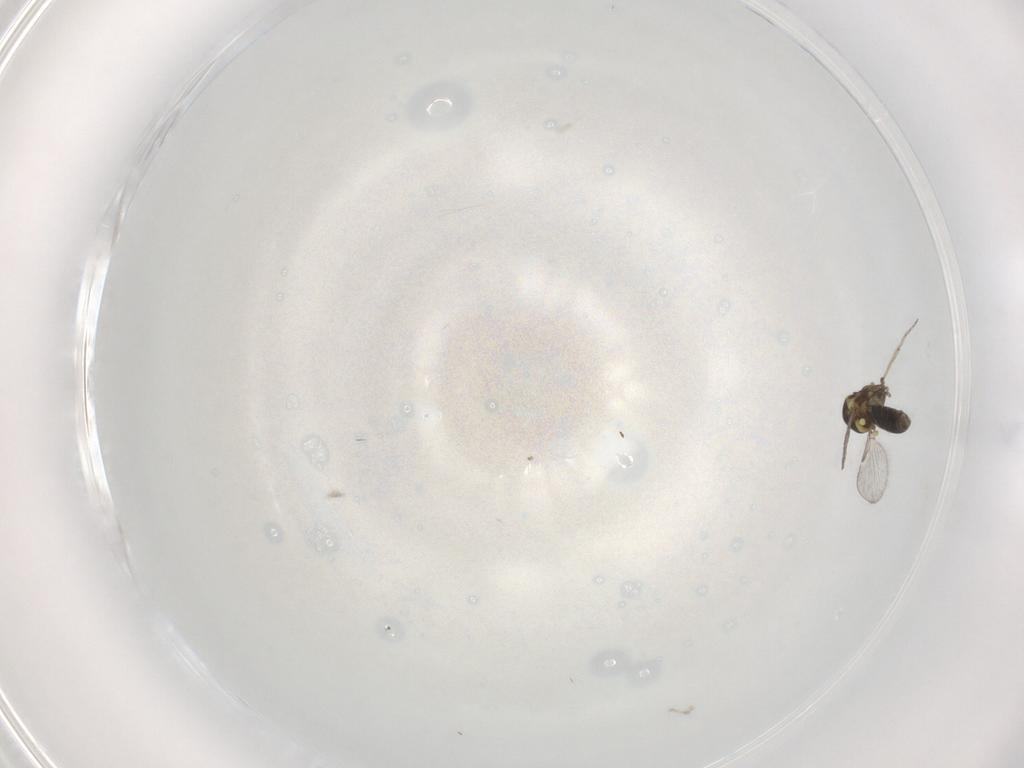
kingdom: Animalia
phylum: Arthropoda
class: Insecta
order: Diptera
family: Ceratopogonidae
